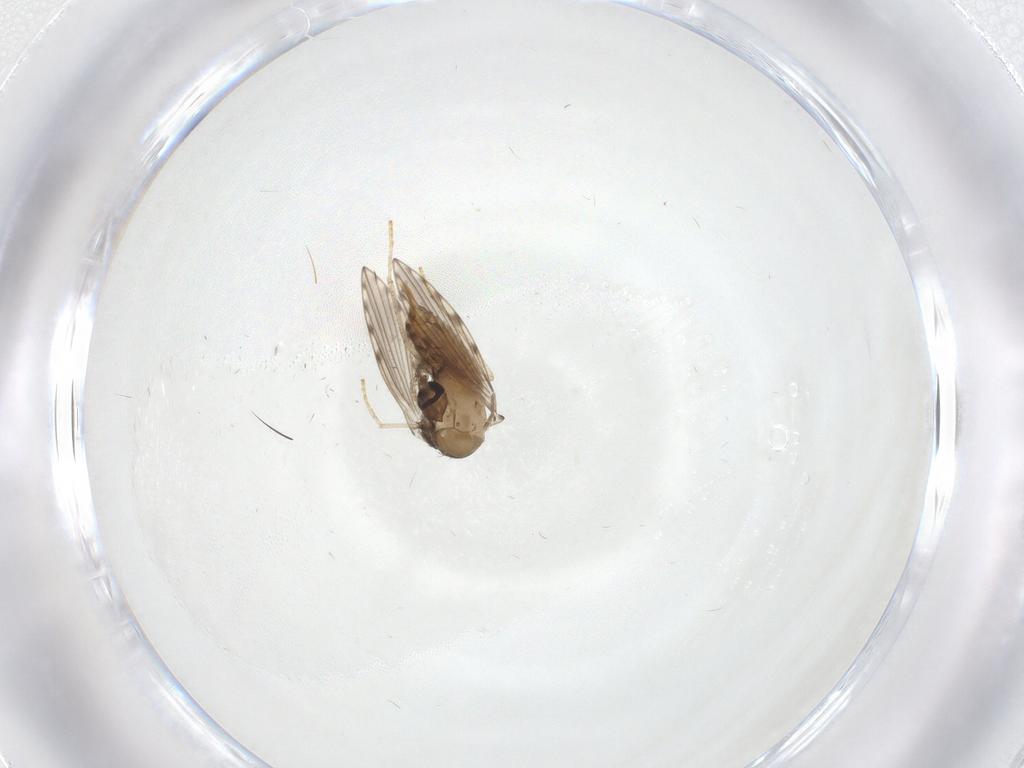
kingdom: Animalia
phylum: Arthropoda
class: Insecta
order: Diptera
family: Psychodidae
